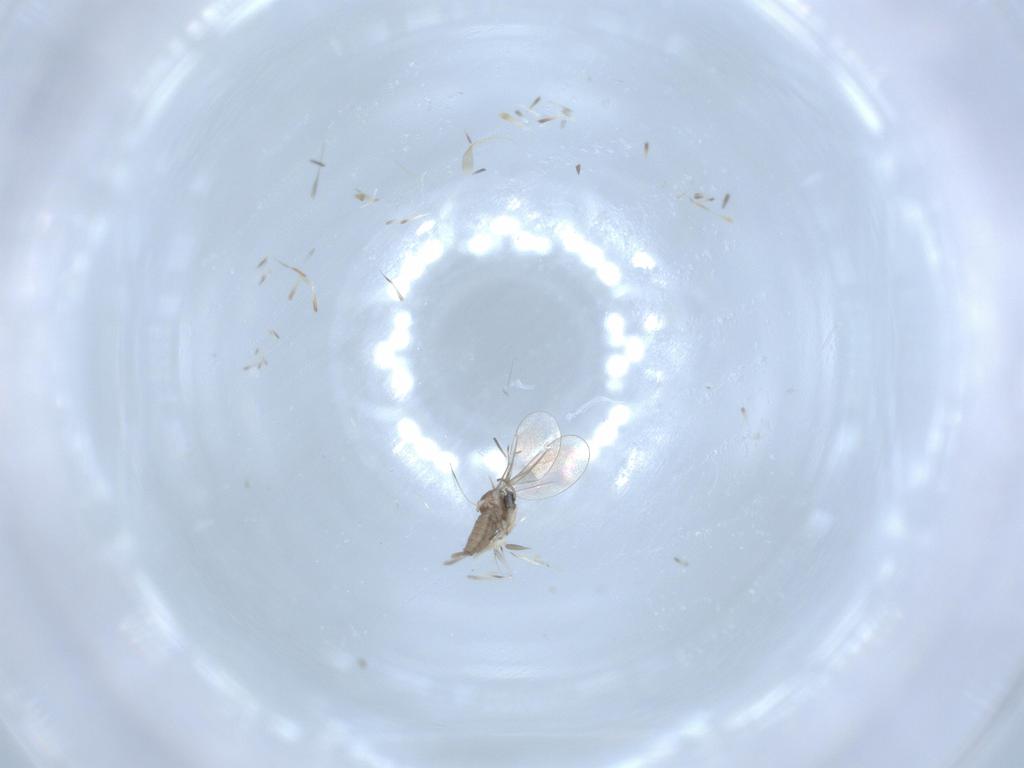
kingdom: Animalia
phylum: Arthropoda
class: Insecta
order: Diptera
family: Cecidomyiidae
